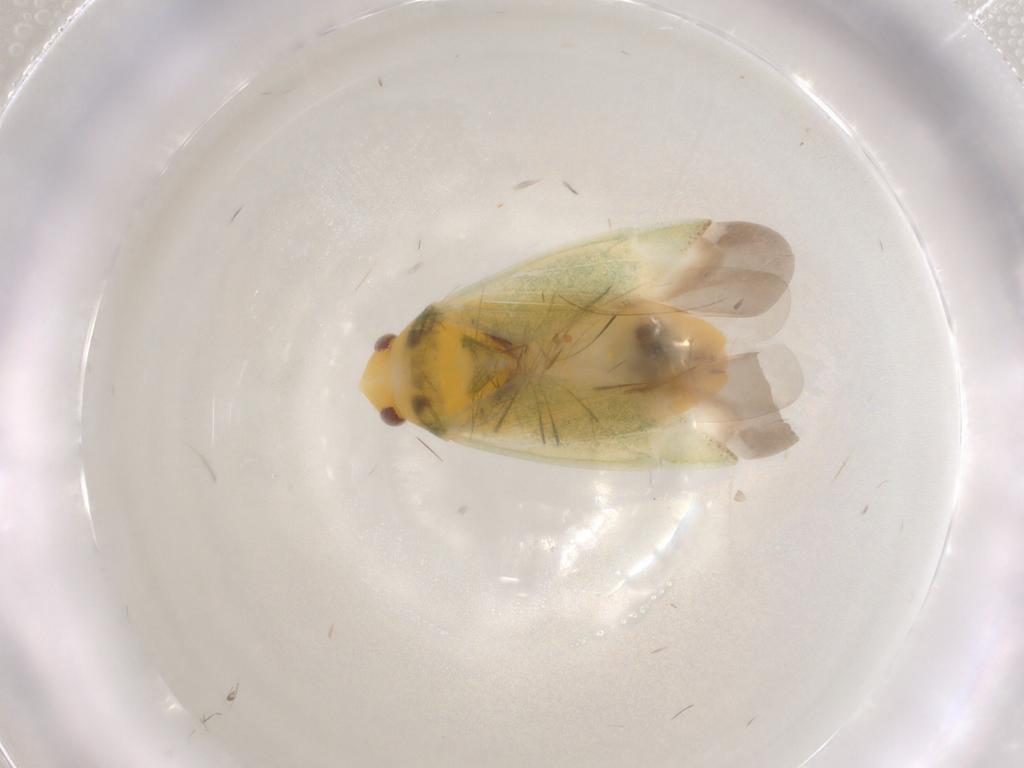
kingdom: Animalia
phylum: Arthropoda
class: Insecta
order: Hemiptera
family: Miridae
